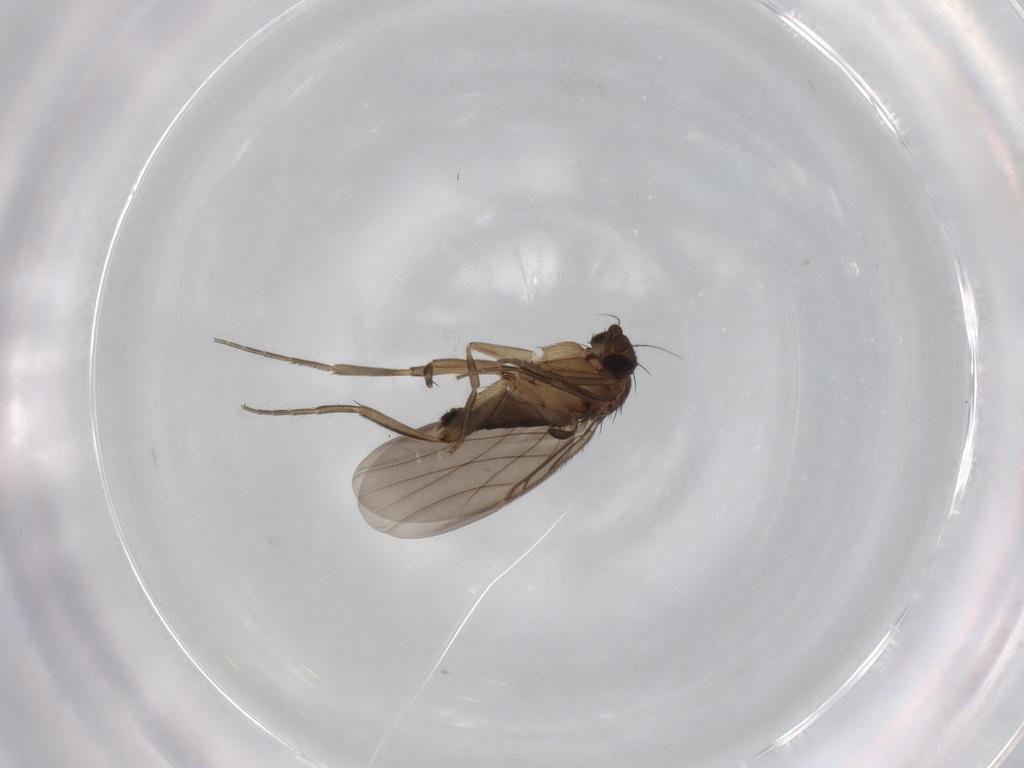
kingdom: Animalia
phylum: Arthropoda
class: Insecta
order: Diptera
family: Phoridae
